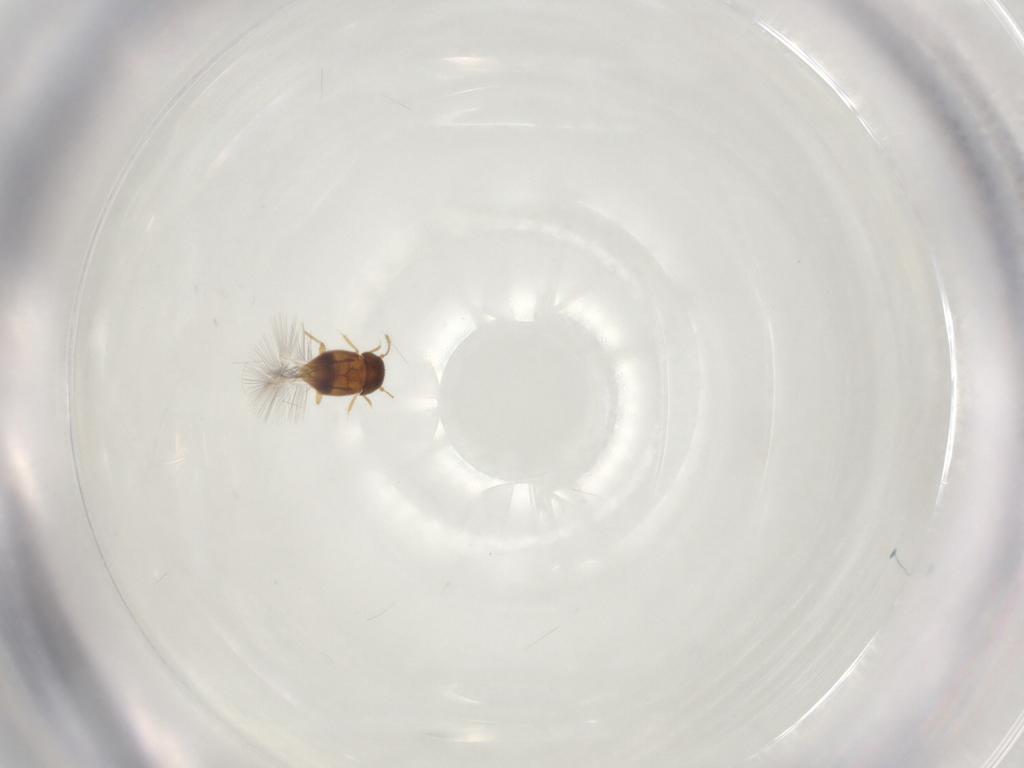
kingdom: Animalia
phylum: Arthropoda
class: Insecta
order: Coleoptera
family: Ptiliidae
